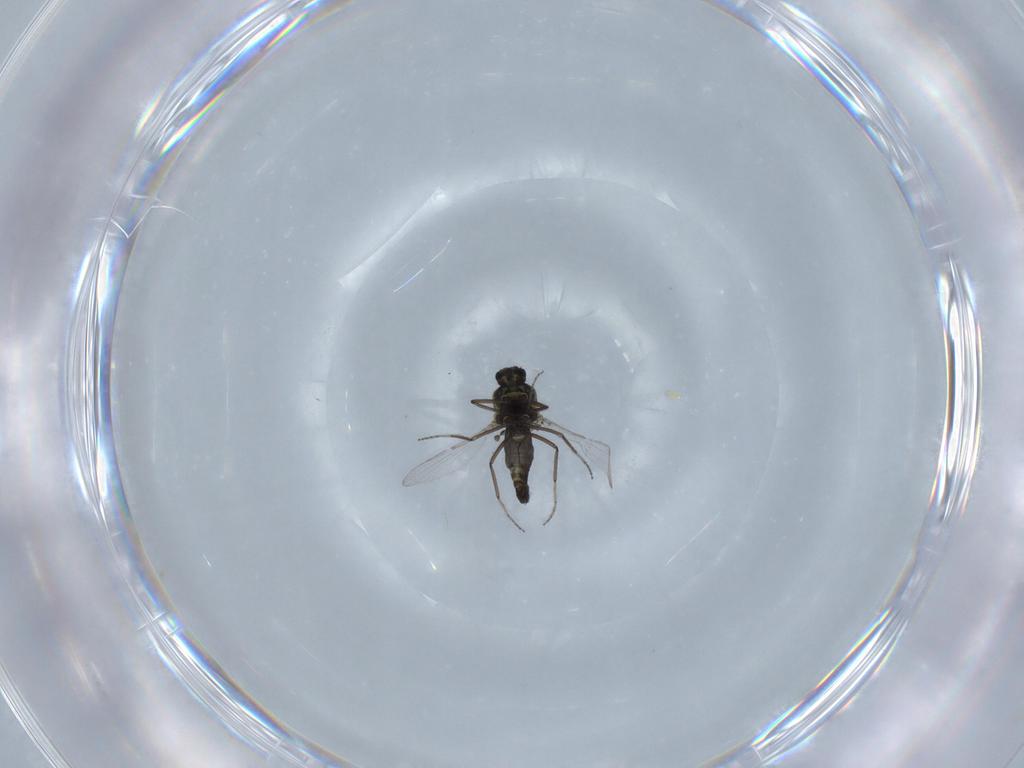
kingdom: Animalia
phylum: Arthropoda
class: Insecta
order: Diptera
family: Ceratopogonidae
